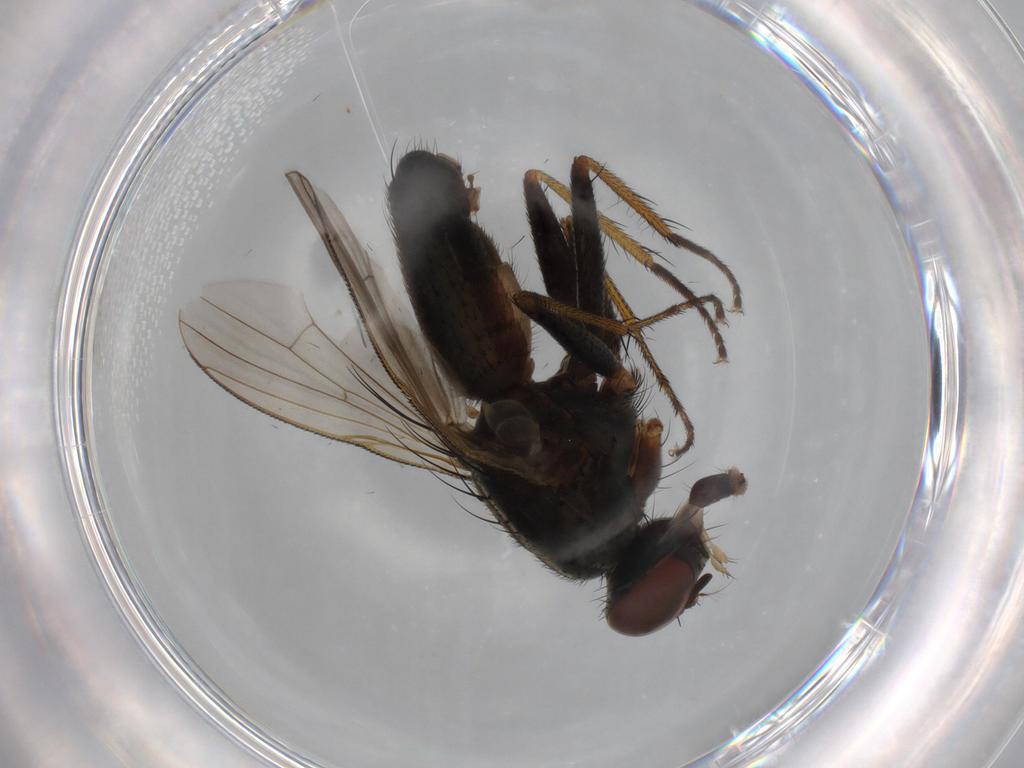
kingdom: Animalia
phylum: Arthropoda
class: Insecta
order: Diptera
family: Muscidae
